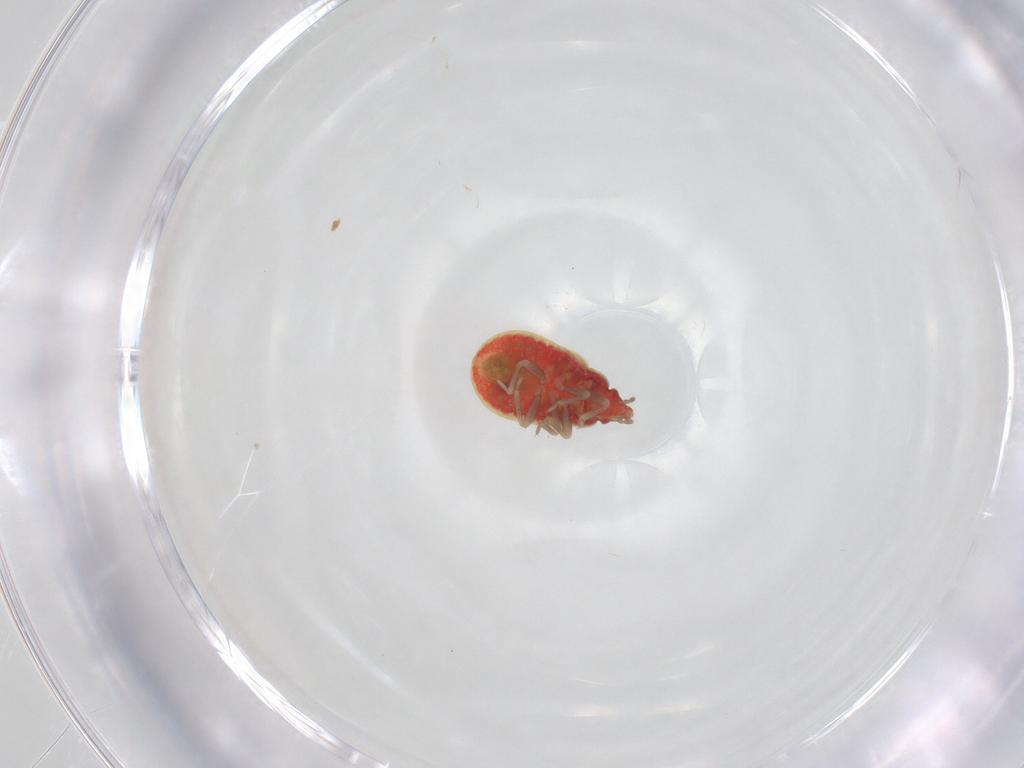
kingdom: Animalia
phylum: Arthropoda
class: Insecta
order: Hemiptera
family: Anthocoridae
